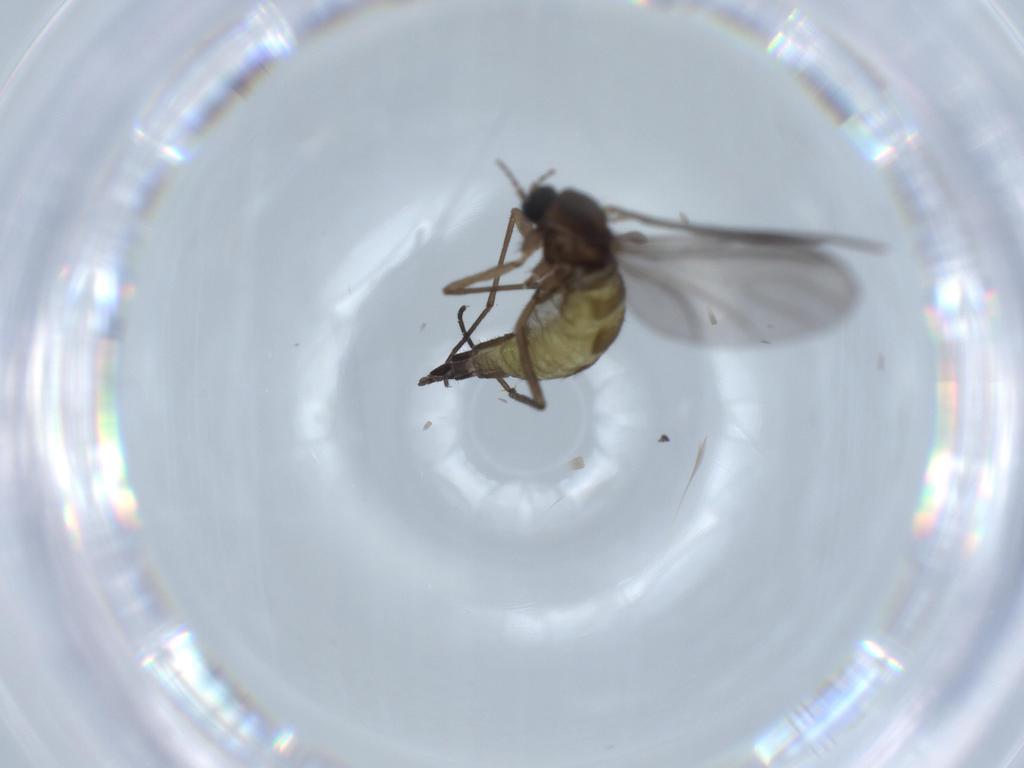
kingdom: Animalia
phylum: Arthropoda
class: Insecta
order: Diptera
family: Sciaridae
